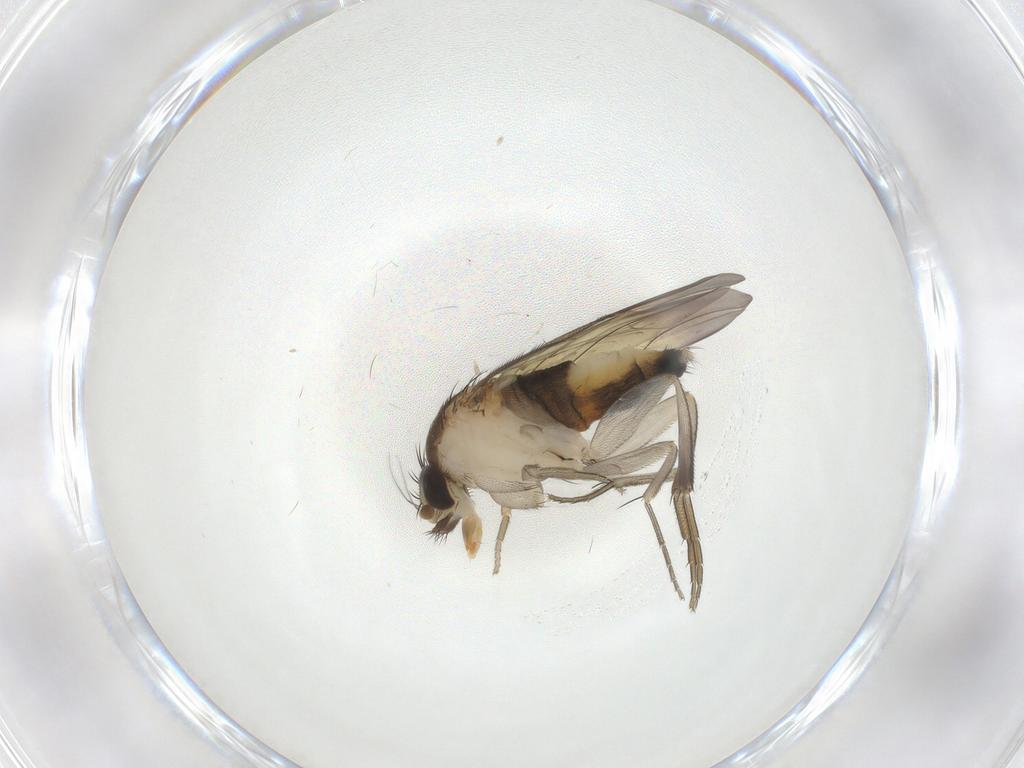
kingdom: Animalia
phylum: Arthropoda
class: Insecta
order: Diptera
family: Phoridae
